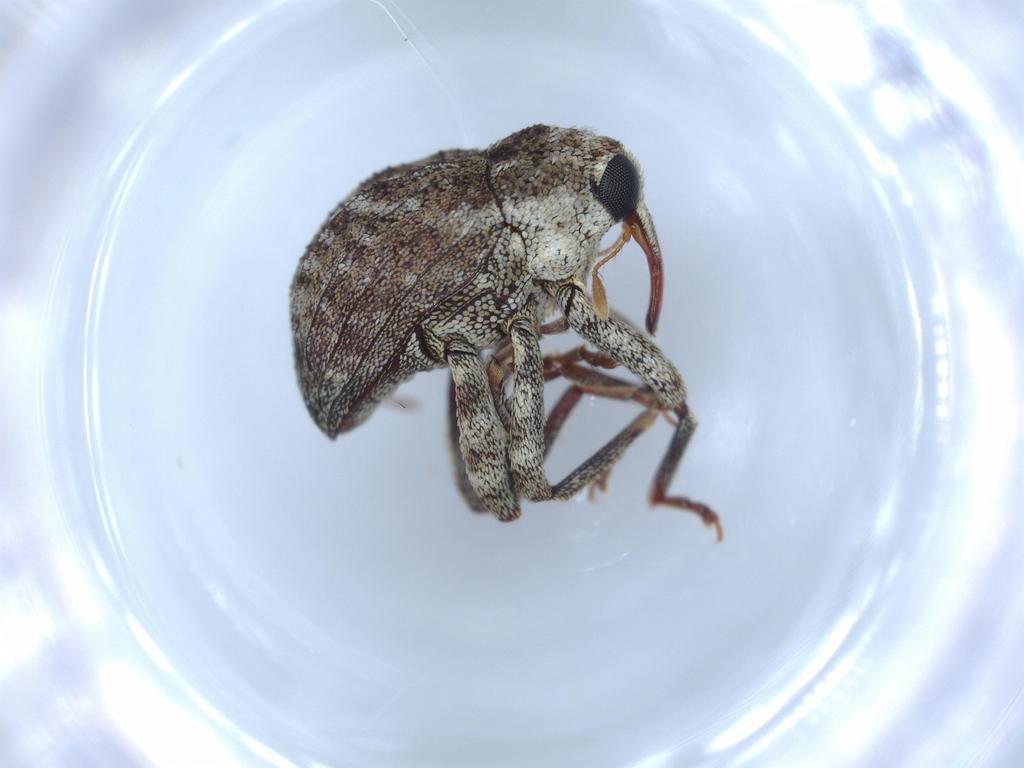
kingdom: Animalia
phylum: Arthropoda
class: Insecta
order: Coleoptera
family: Curculionidae
